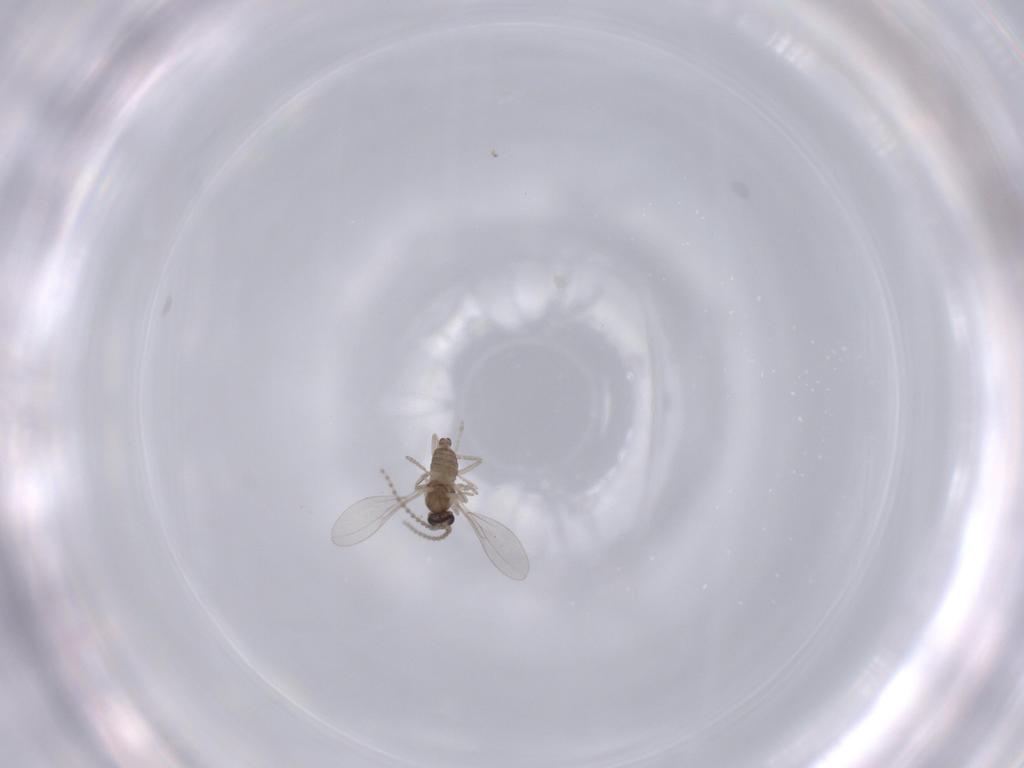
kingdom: Animalia
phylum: Arthropoda
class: Insecta
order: Diptera
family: Cecidomyiidae
